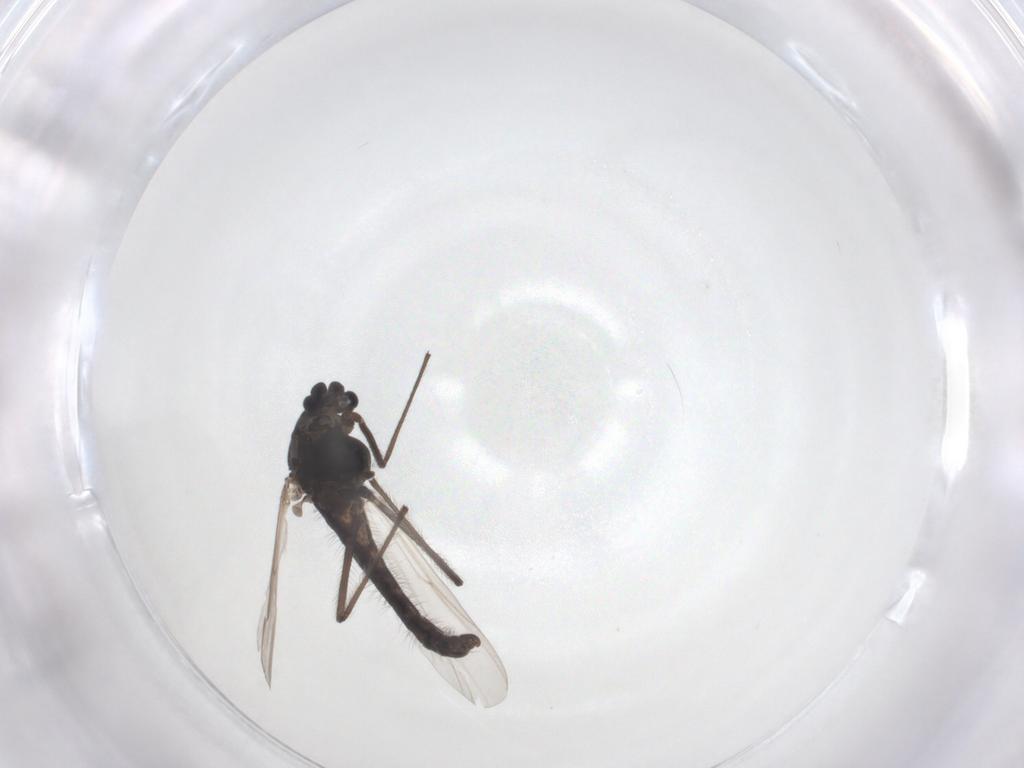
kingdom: Animalia
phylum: Arthropoda
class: Insecta
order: Diptera
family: Chironomidae
